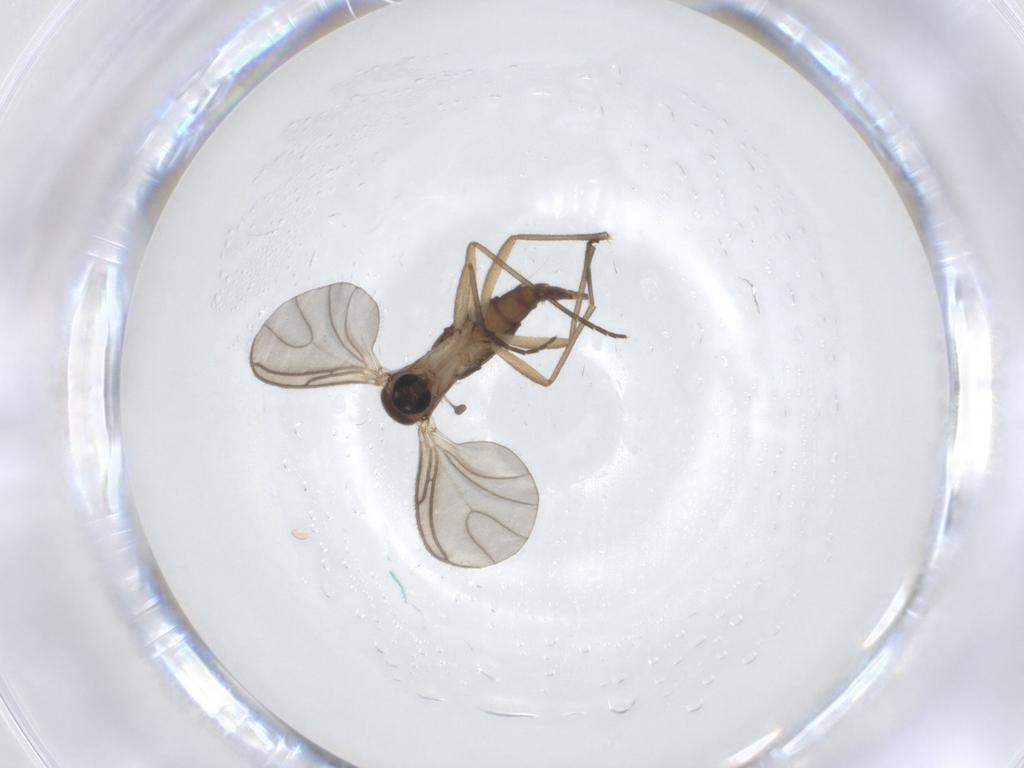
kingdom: Animalia
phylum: Arthropoda
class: Insecta
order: Diptera
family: Sciaridae
